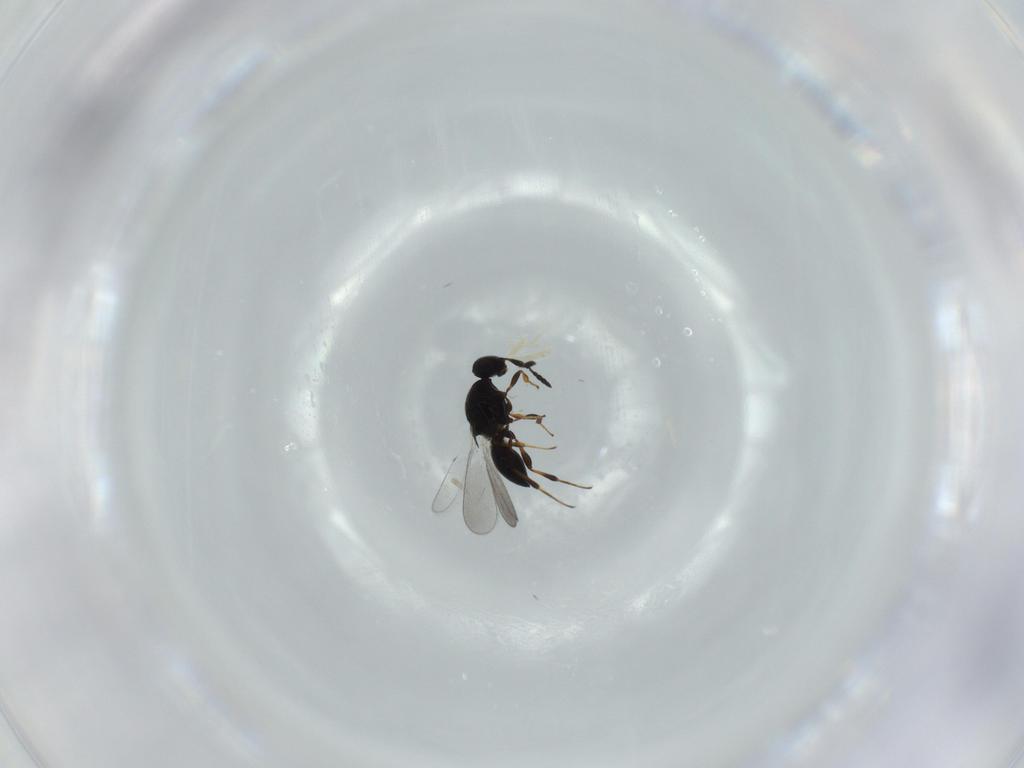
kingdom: Animalia
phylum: Arthropoda
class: Insecta
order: Hymenoptera
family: Platygastridae
